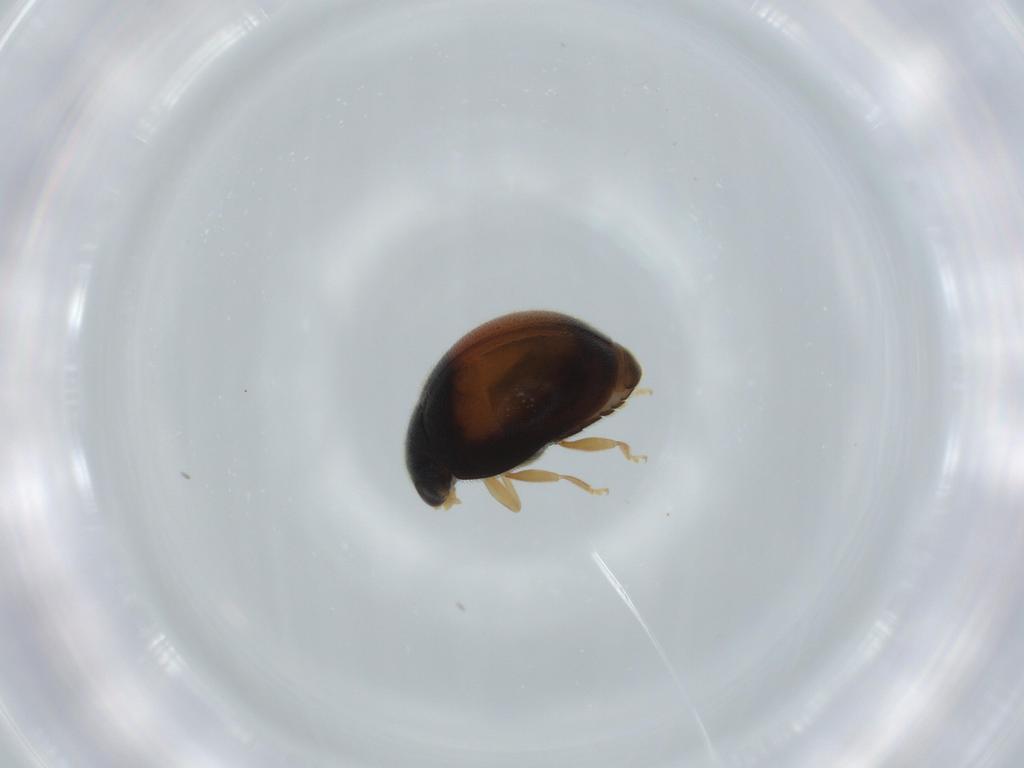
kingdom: Animalia
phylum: Arthropoda
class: Insecta
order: Coleoptera
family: Coccinellidae
